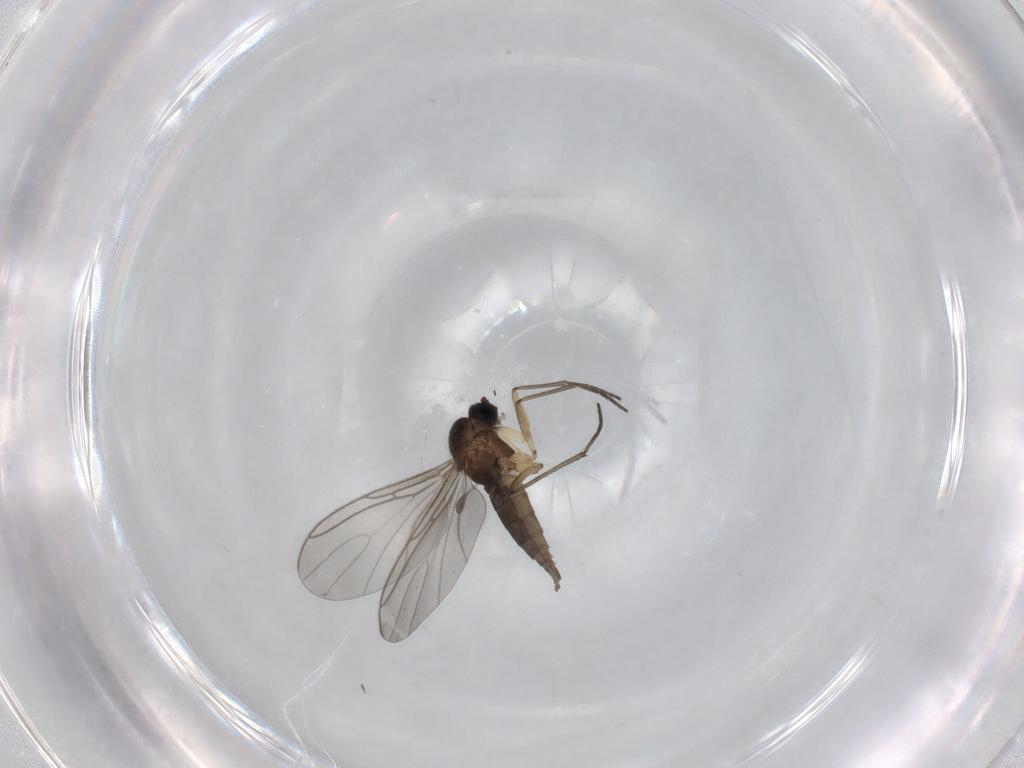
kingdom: Animalia
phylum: Arthropoda
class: Insecta
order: Diptera
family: Sciaridae
